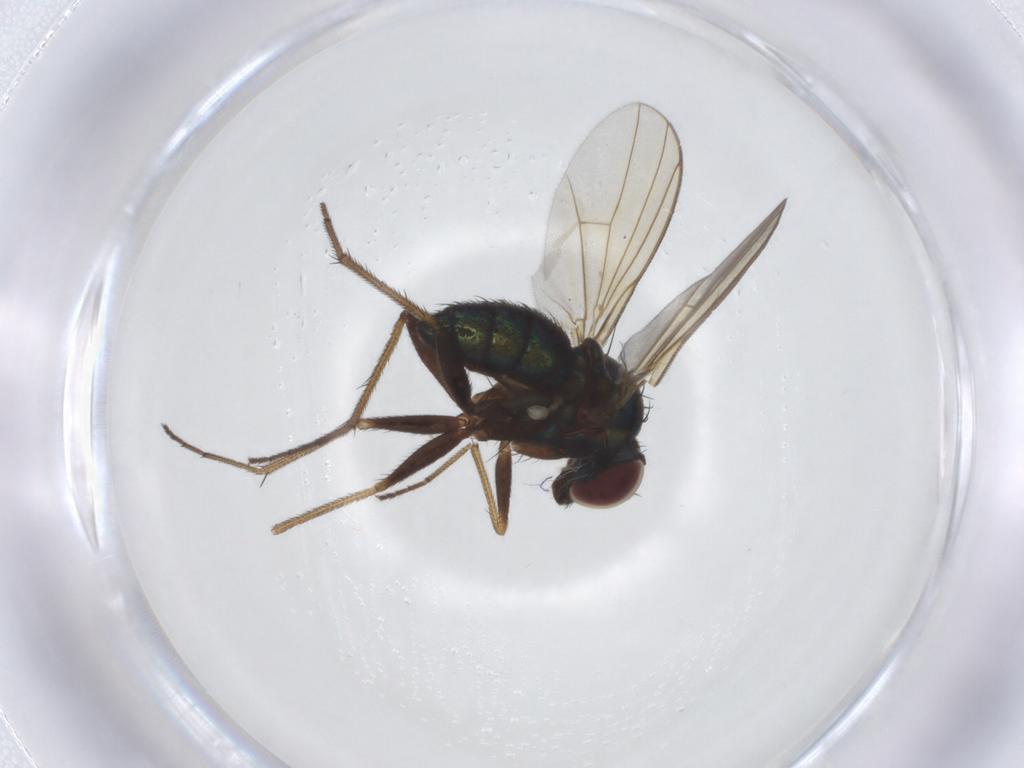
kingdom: Animalia
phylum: Arthropoda
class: Insecta
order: Diptera
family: Dolichopodidae
